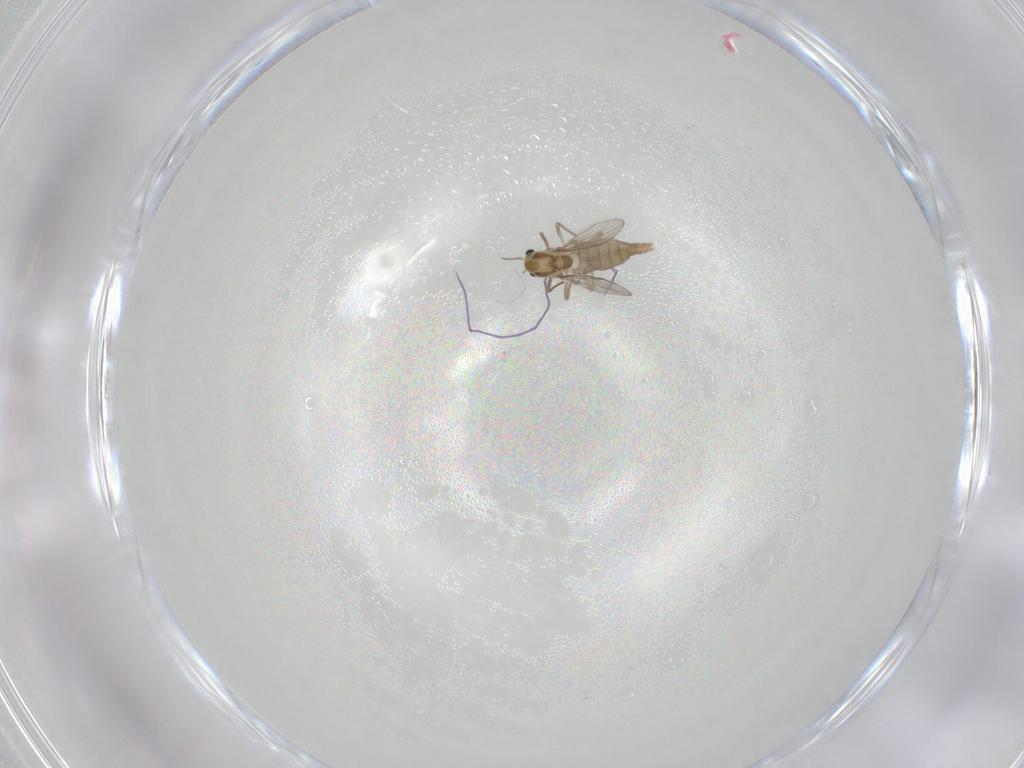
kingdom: Animalia
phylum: Arthropoda
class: Insecta
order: Diptera
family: Chironomidae
